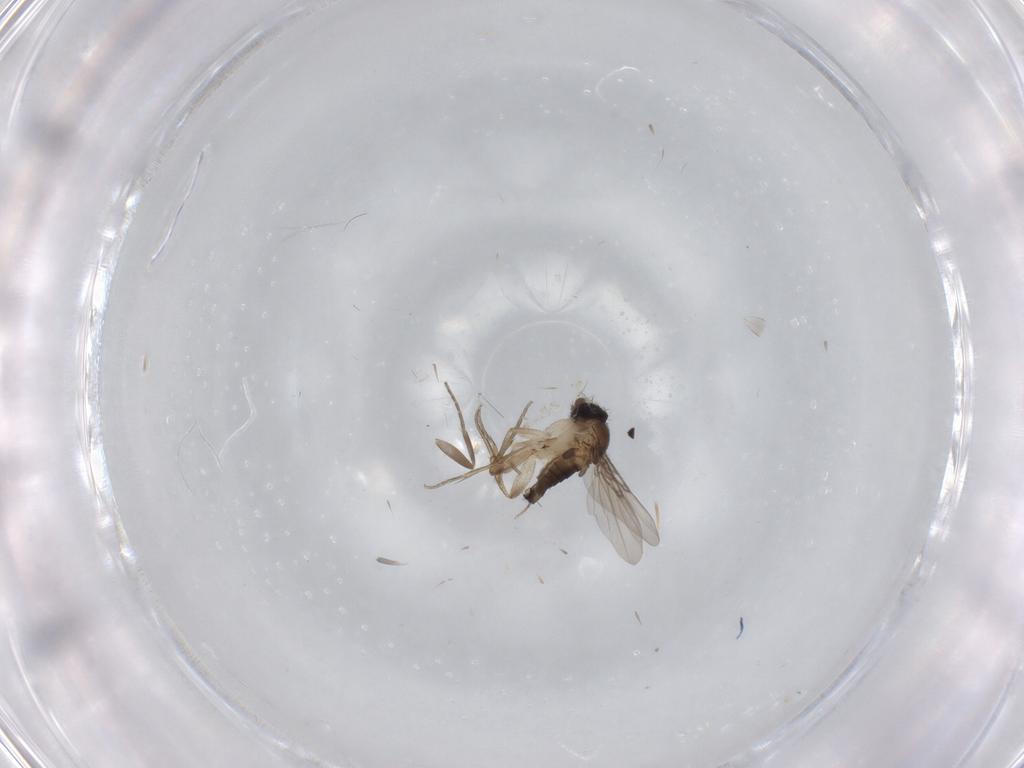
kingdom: Animalia
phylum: Arthropoda
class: Insecta
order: Diptera
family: Phoridae
